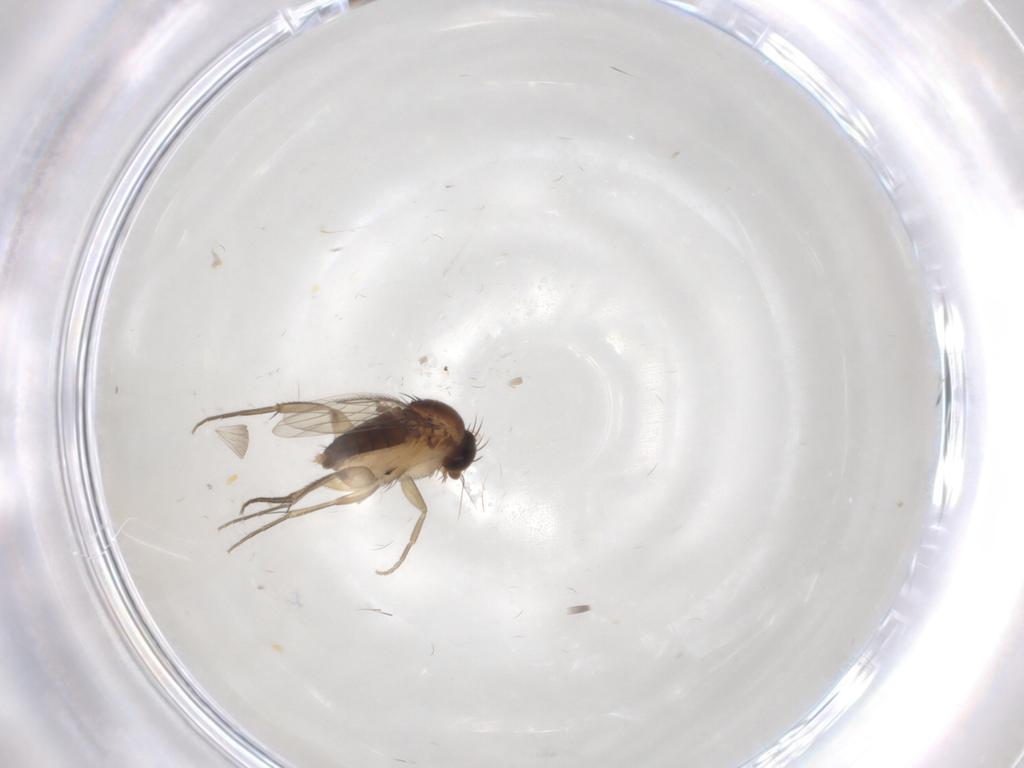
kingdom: Animalia
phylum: Arthropoda
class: Insecta
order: Diptera
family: Phoridae
